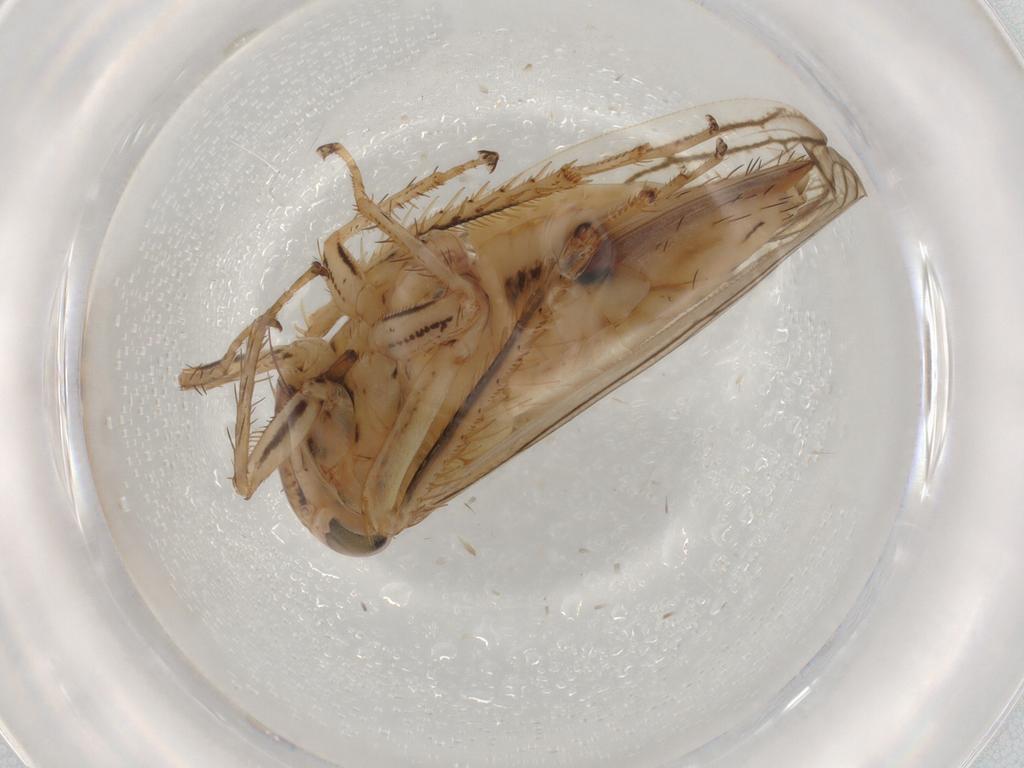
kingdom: Animalia
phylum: Arthropoda
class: Insecta
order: Hemiptera
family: Cicadellidae
